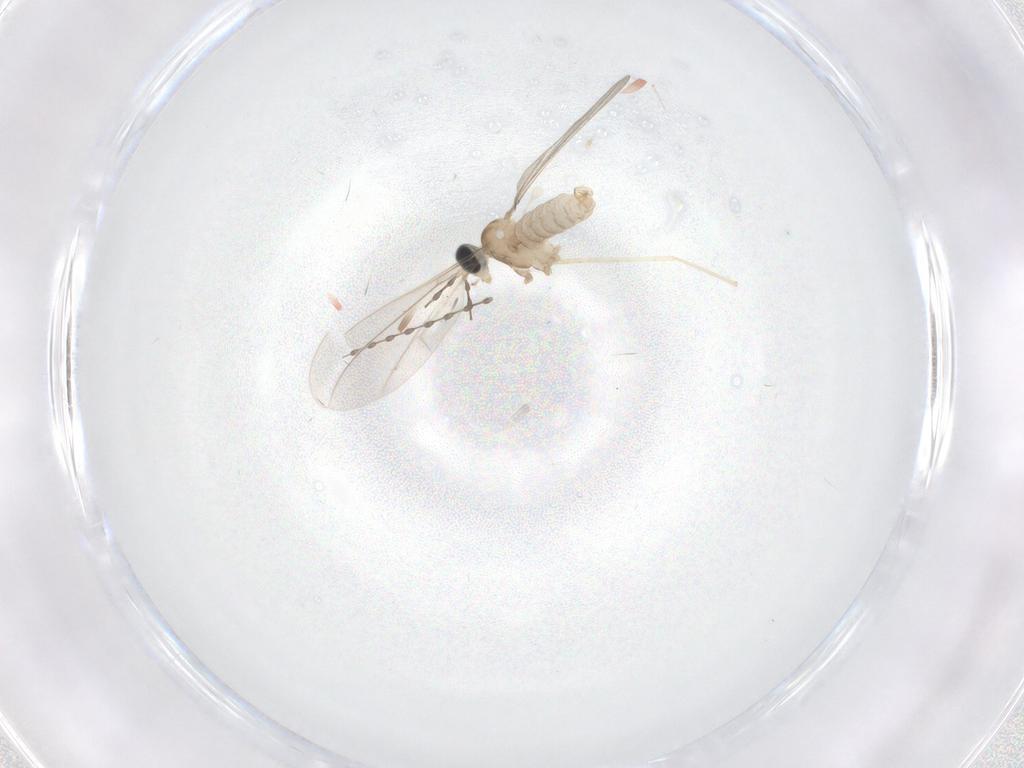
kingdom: Animalia
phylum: Arthropoda
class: Insecta
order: Diptera
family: Cecidomyiidae
